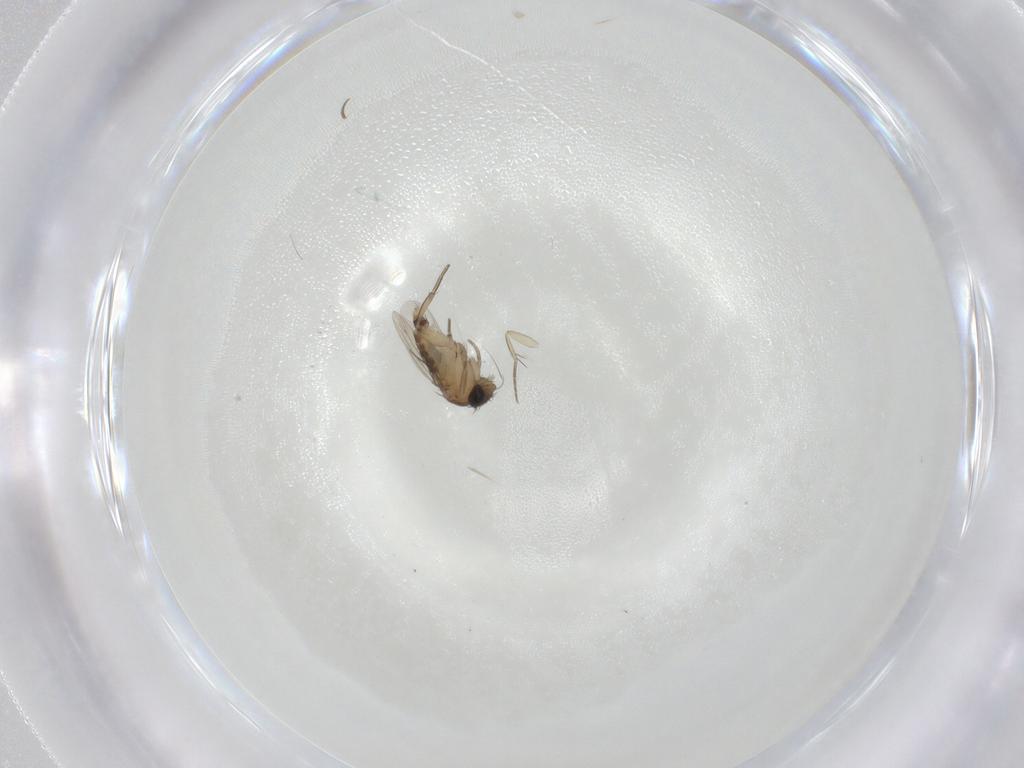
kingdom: Animalia
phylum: Arthropoda
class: Insecta
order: Diptera
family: Phoridae
